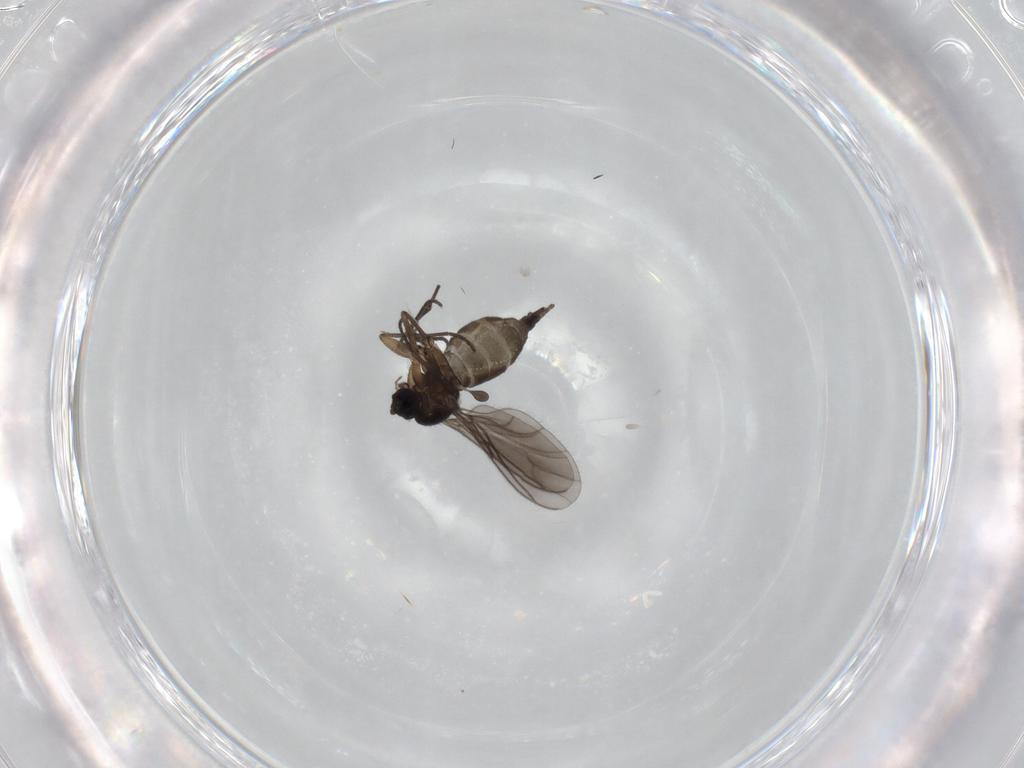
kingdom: Animalia
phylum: Arthropoda
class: Insecta
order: Diptera
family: Sciaridae
